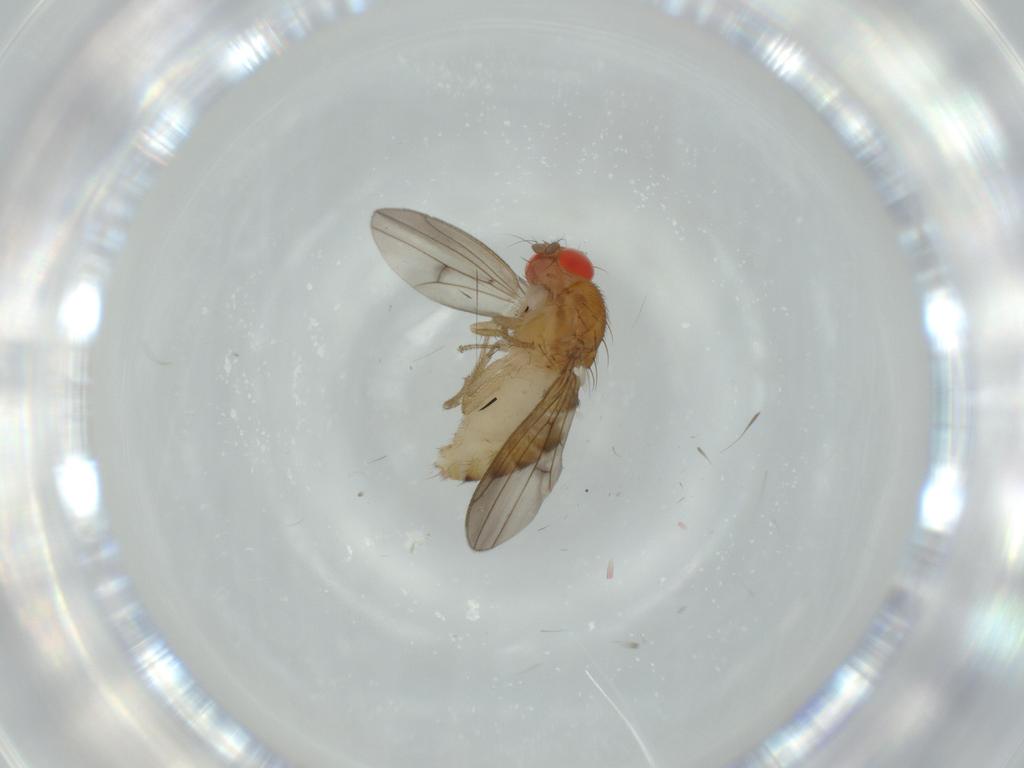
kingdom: Animalia
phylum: Arthropoda
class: Insecta
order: Diptera
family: Drosophilidae
